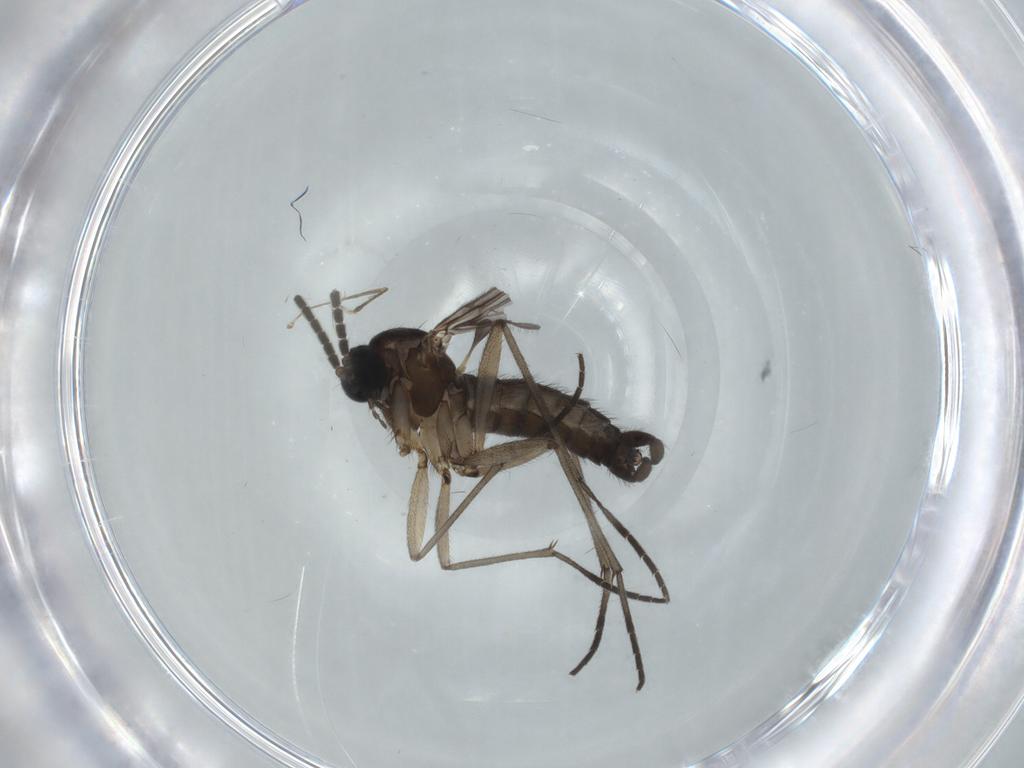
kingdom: Animalia
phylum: Arthropoda
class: Insecta
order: Diptera
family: Sciaridae
